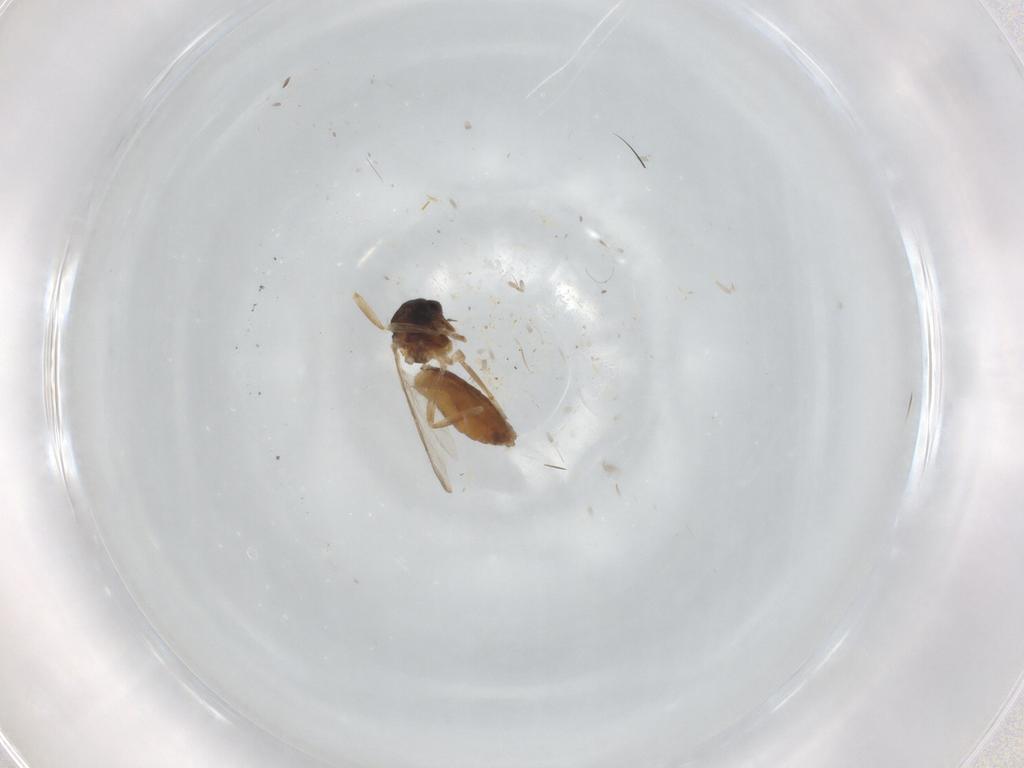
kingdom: Animalia
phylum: Arthropoda
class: Insecta
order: Diptera
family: Ceratopogonidae
